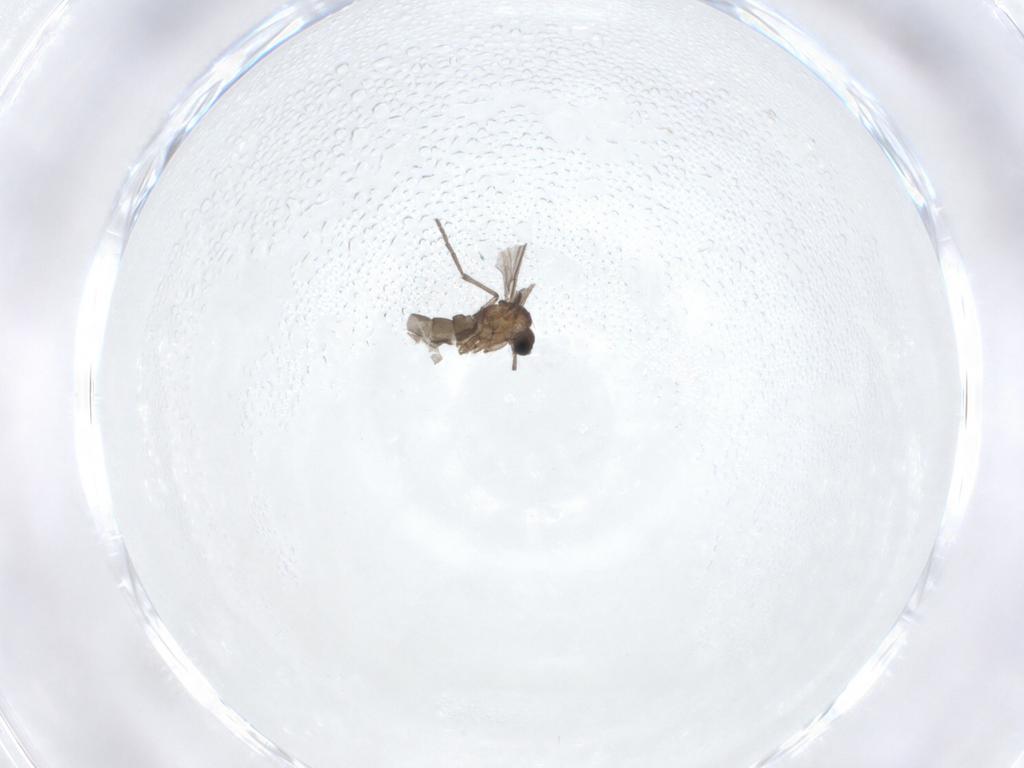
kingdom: Animalia
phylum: Arthropoda
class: Insecta
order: Diptera
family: Sciaridae
